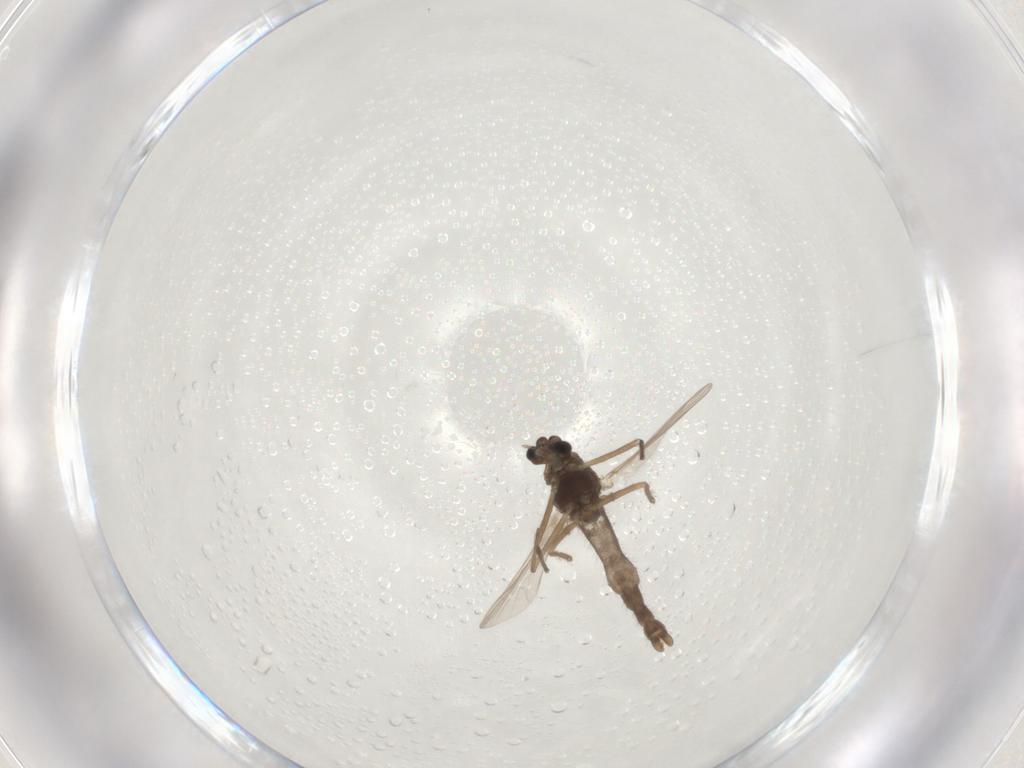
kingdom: Animalia
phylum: Arthropoda
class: Insecta
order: Diptera
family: Chironomidae
